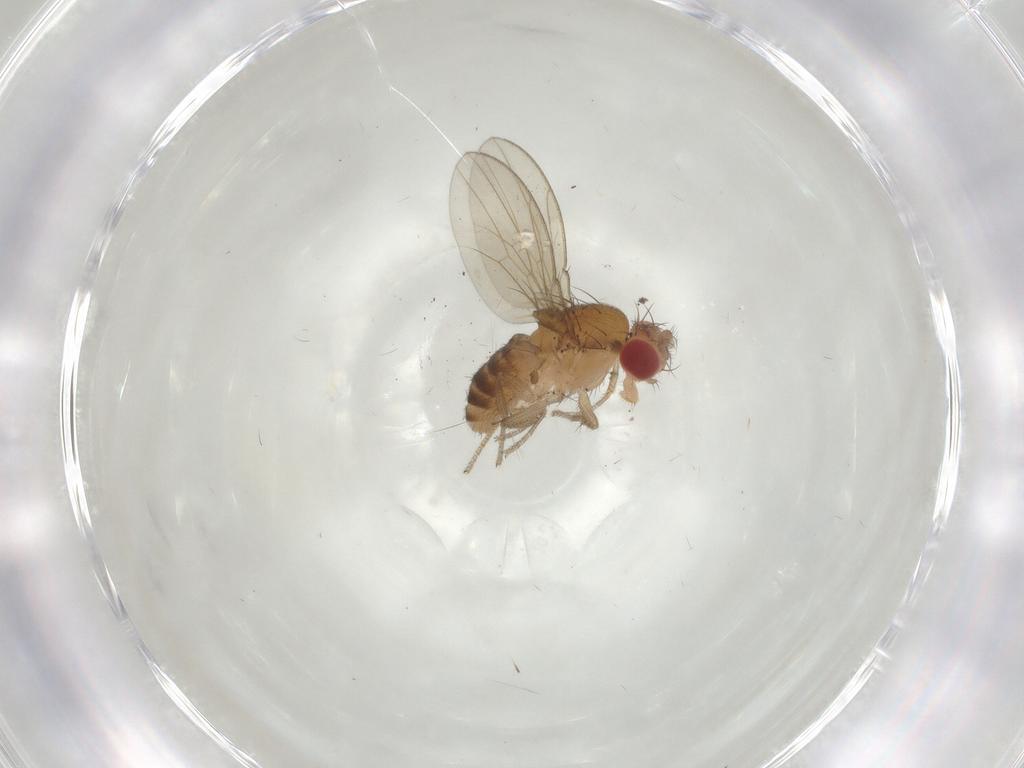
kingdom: Animalia
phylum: Arthropoda
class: Insecta
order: Diptera
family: Drosophilidae
